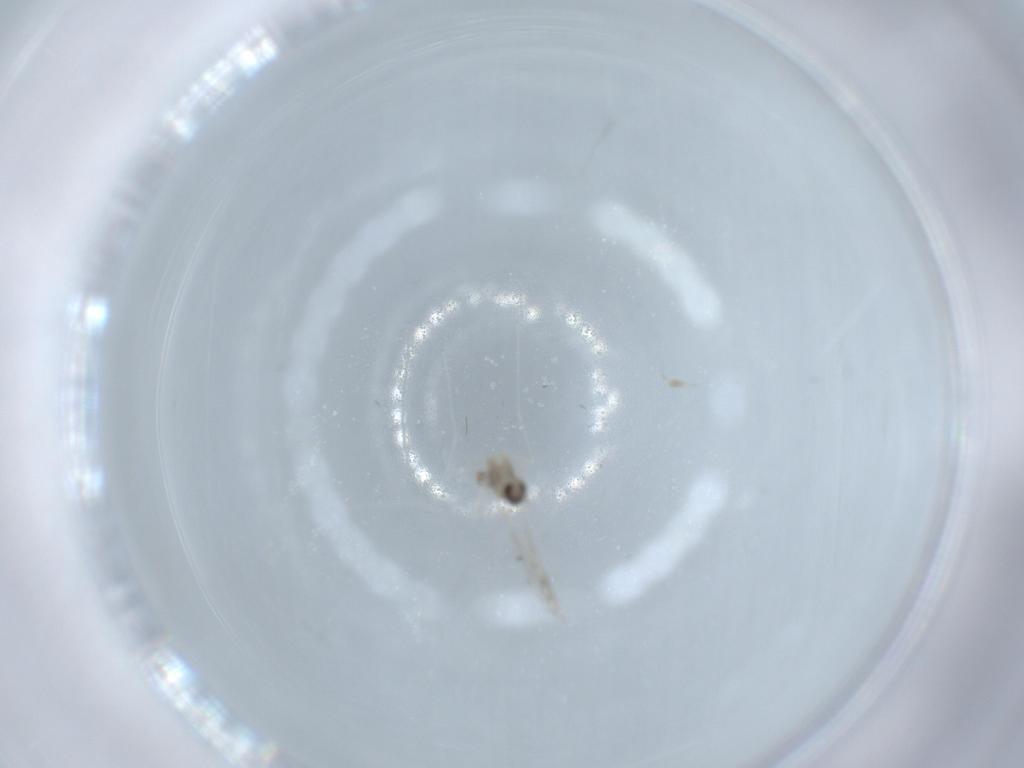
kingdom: Animalia
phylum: Arthropoda
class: Insecta
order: Diptera
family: Cecidomyiidae
